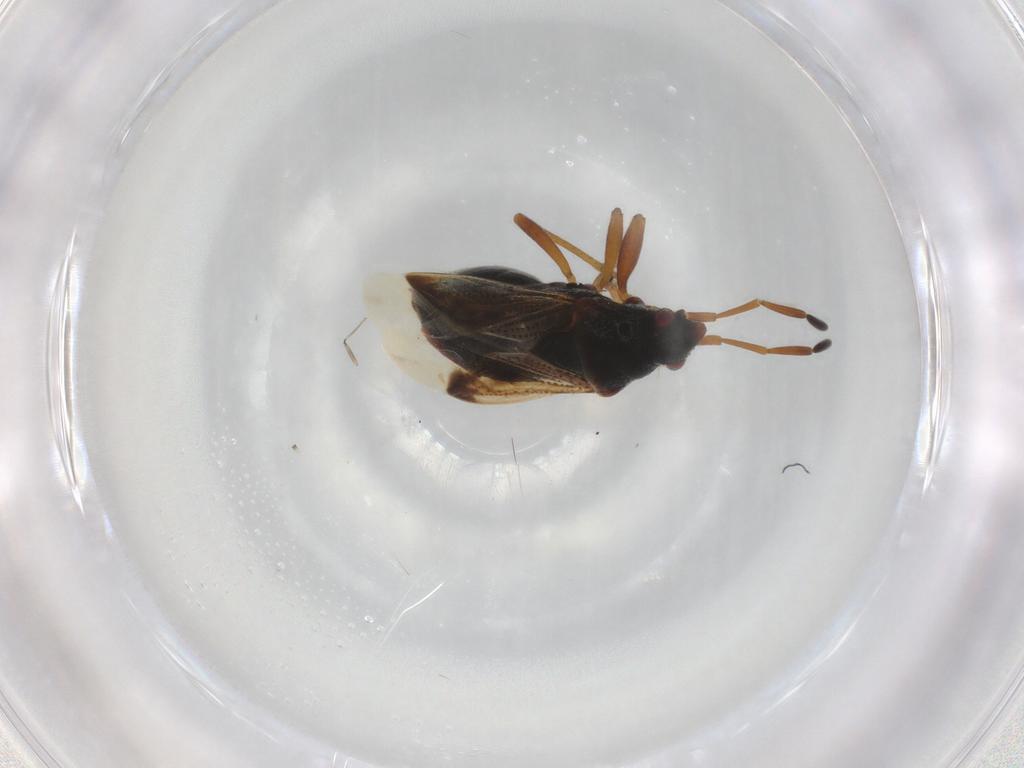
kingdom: Animalia
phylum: Arthropoda
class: Insecta
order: Hemiptera
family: Rhyparochromidae
